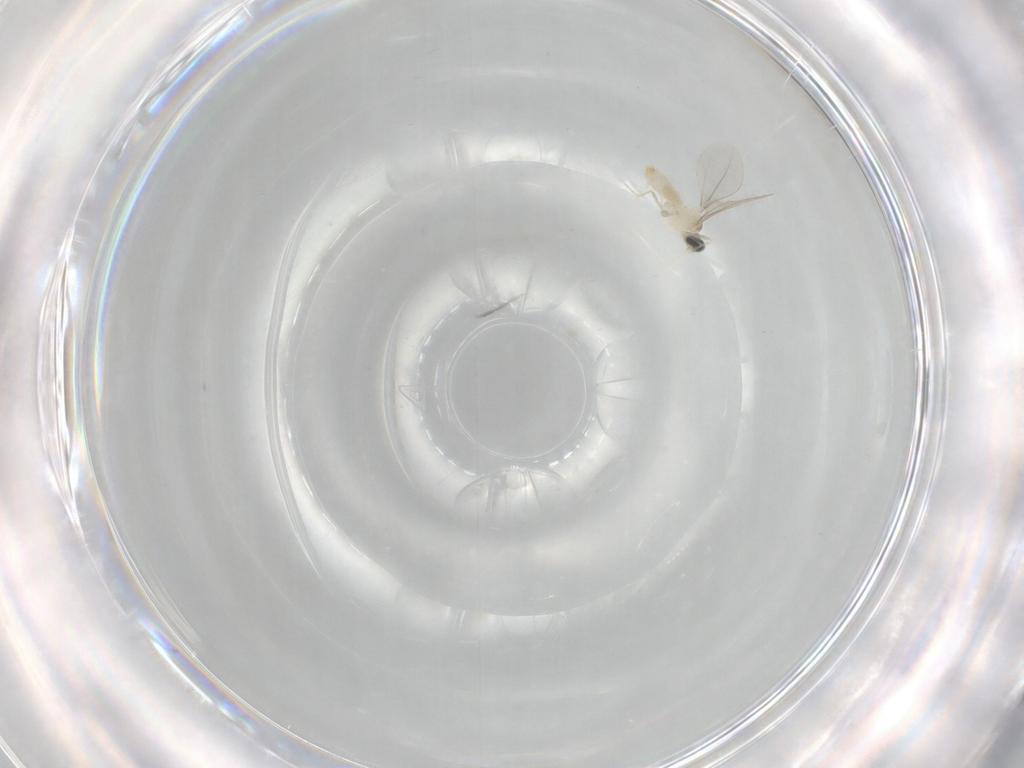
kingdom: Animalia
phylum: Arthropoda
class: Insecta
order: Diptera
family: Cecidomyiidae
